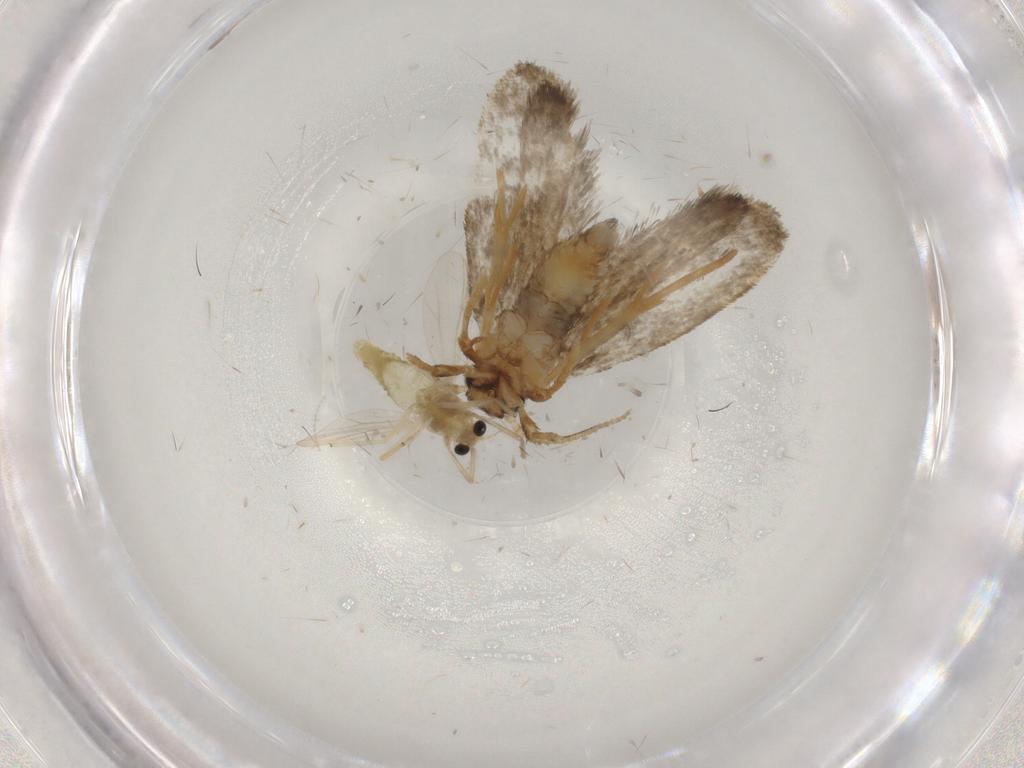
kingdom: Animalia
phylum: Arthropoda
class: Insecta
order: Lepidoptera
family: Psychidae
